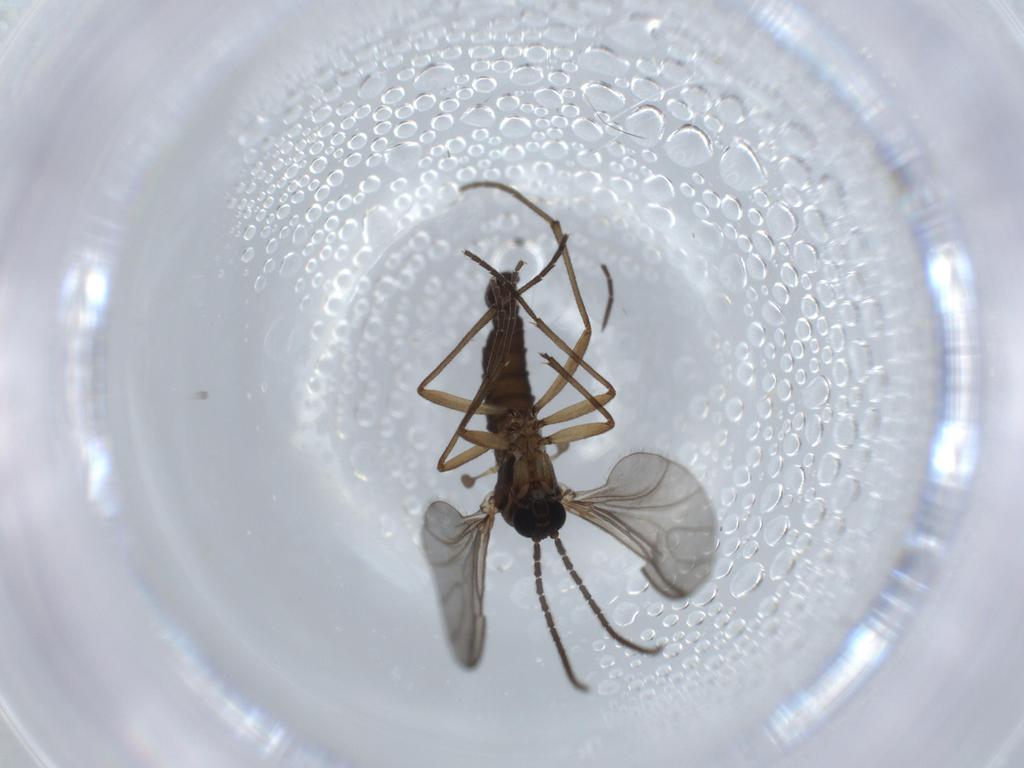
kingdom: Animalia
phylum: Arthropoda
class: Insecta
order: Diptera
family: Sciaridae
